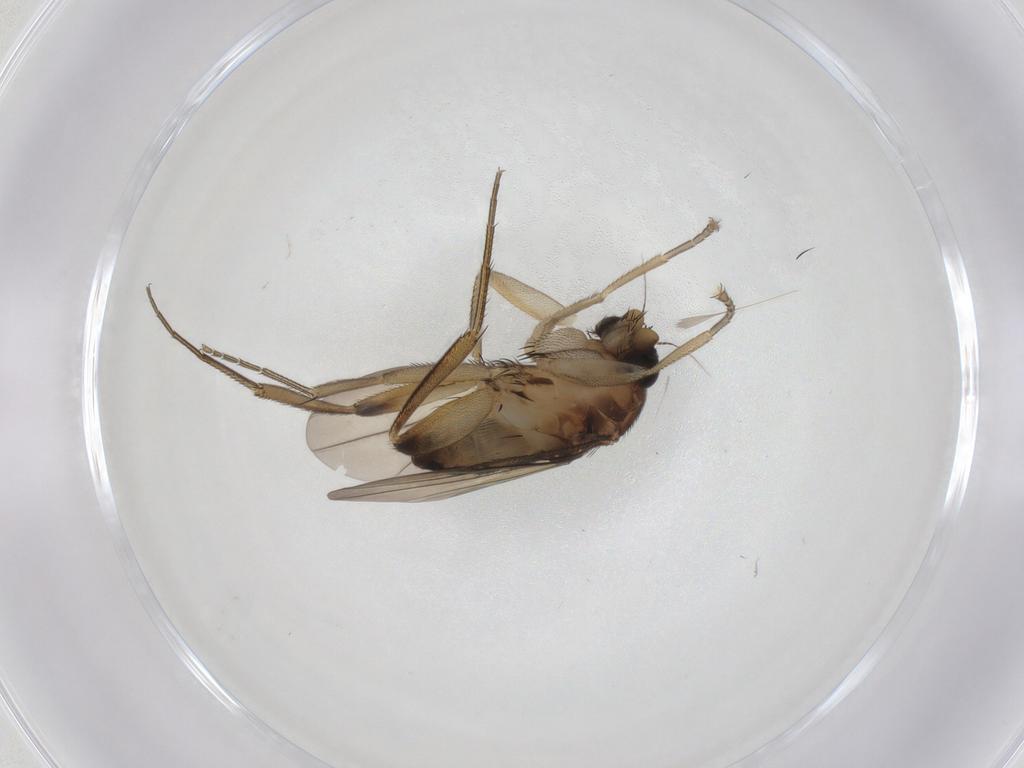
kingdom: Animalia
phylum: Arthropoda
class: Insecta
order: Diptera
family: Phoridae
